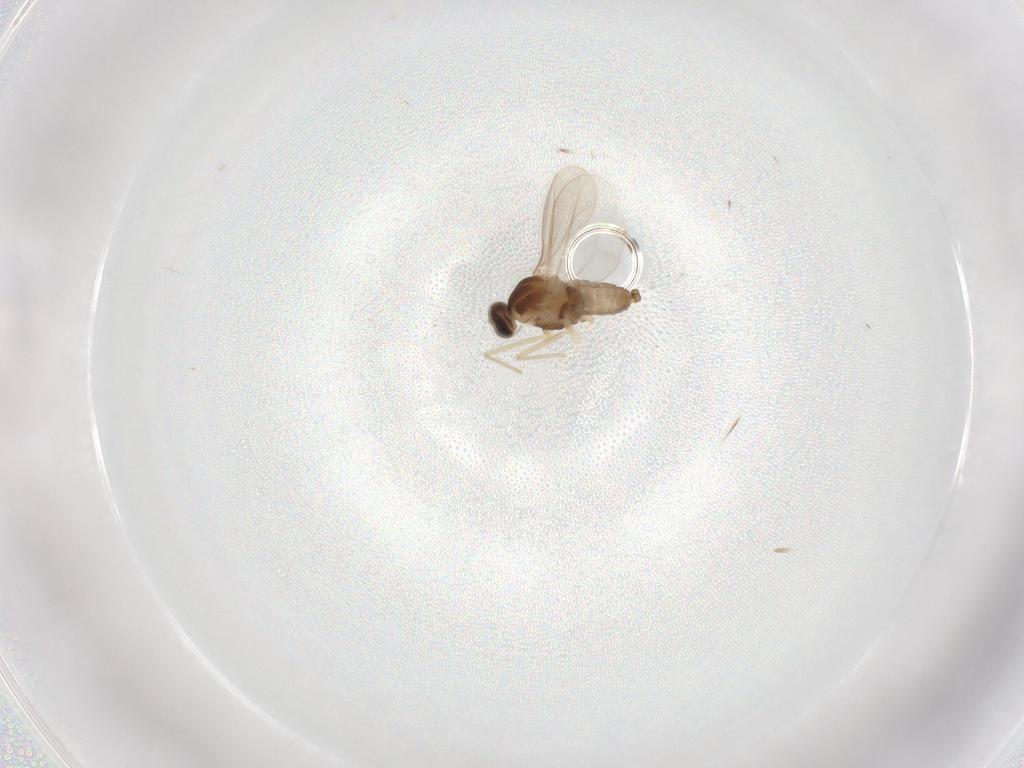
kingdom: Animalia
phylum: Arthropoda
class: Insecta
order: Diptera
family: Cecidomyiidae
